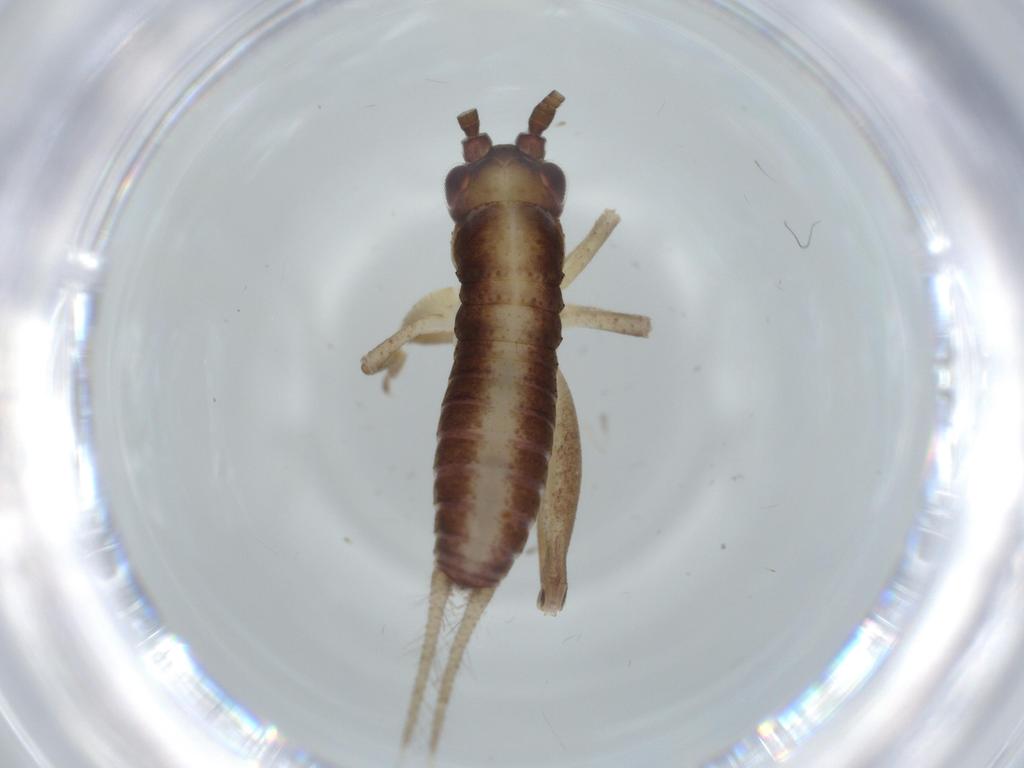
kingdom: Animalia
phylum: Arthropoda
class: Insecta
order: Orthoptera
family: Gryllidae
